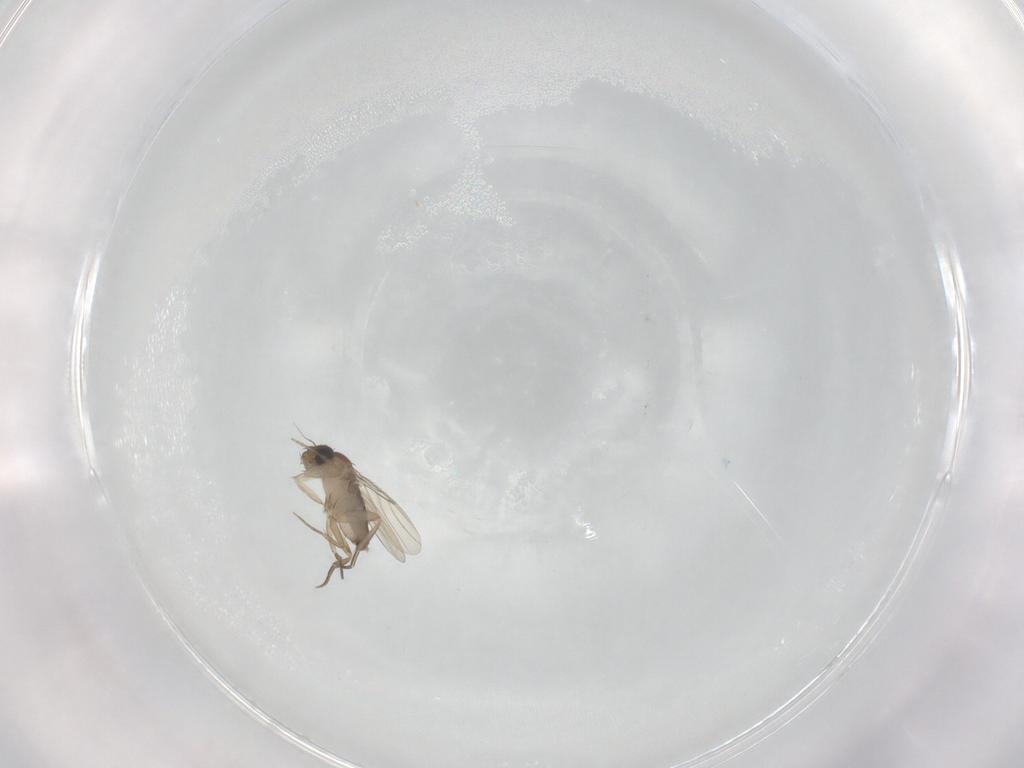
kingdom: Animalia
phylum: Arthropoda
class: Insecta
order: Diptera
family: Phoridae
